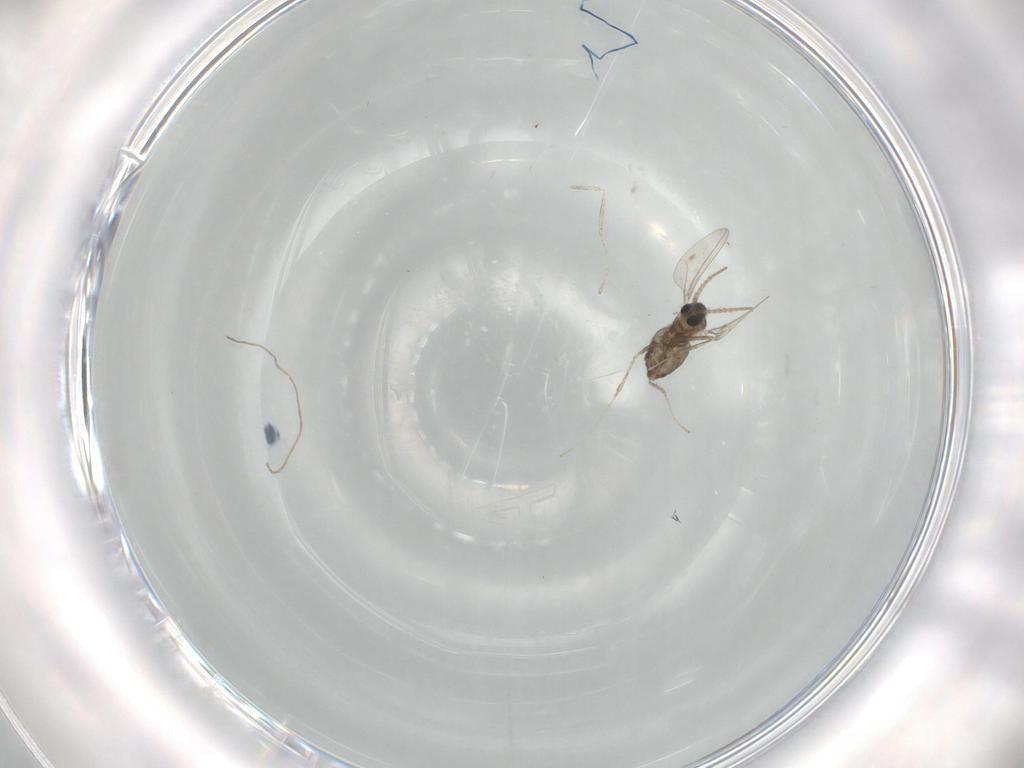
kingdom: Animalia
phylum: Arthropoda
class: Insecta
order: Diptera
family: Cecidomyiidae
